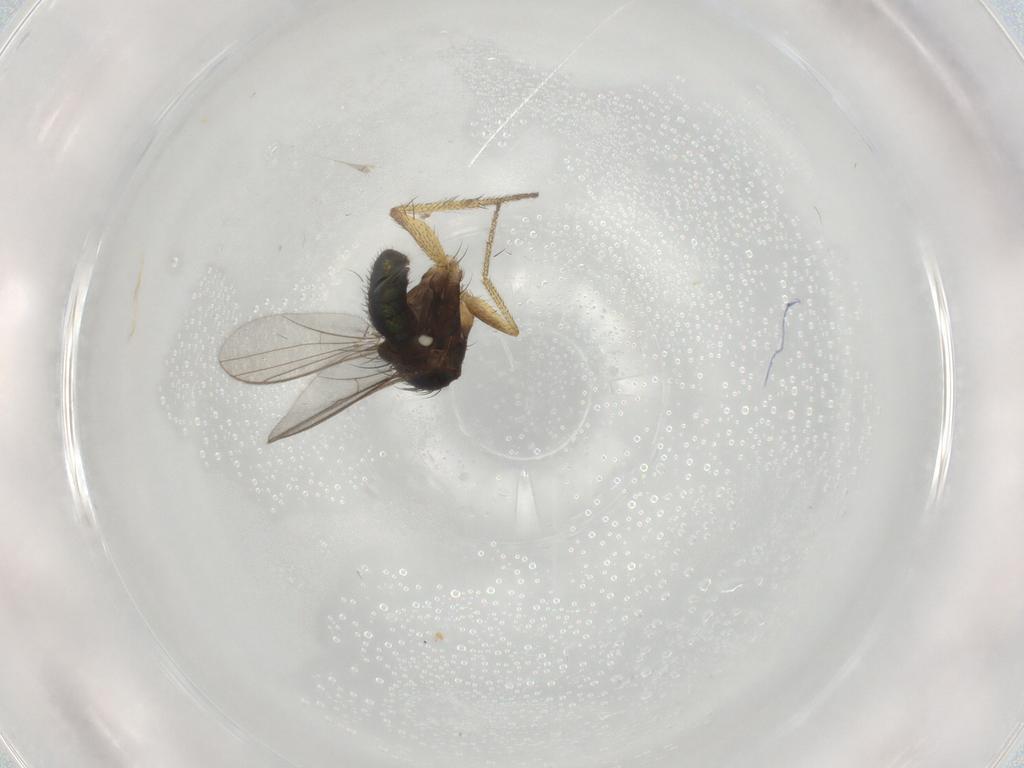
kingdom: Animalia
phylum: Arthropoda
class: Insecta
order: Diptera
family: Dolichopodidae
